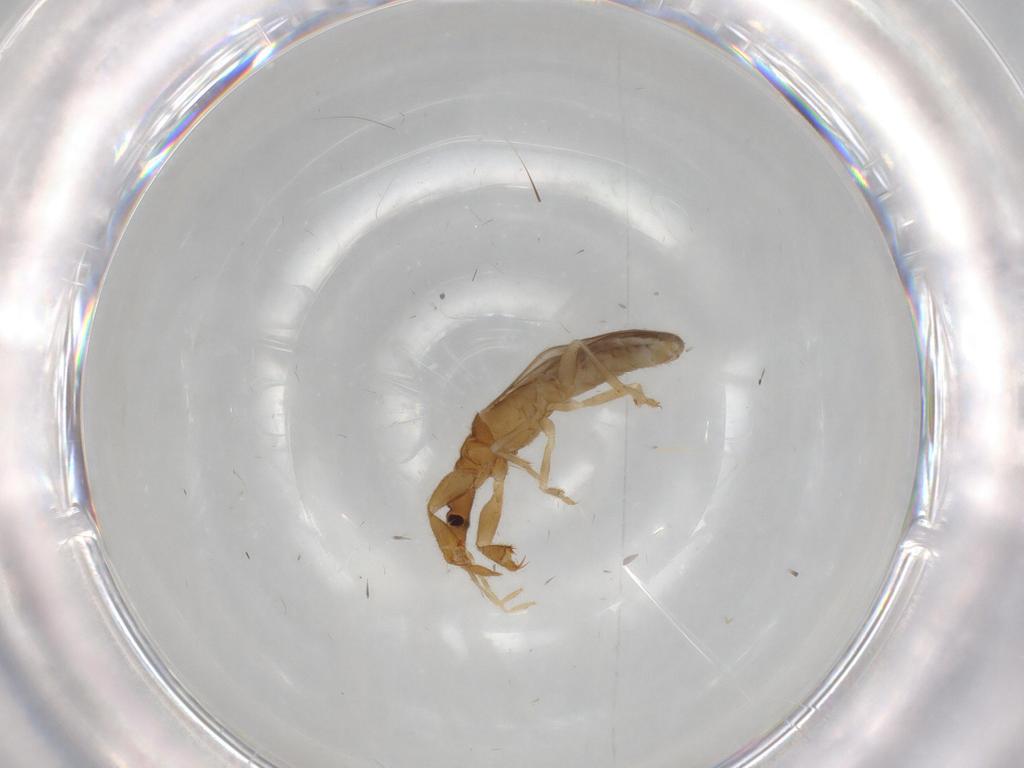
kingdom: Animalia
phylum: Arthropoda
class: Insecta
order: Hemiptera
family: Enicocephalidae
